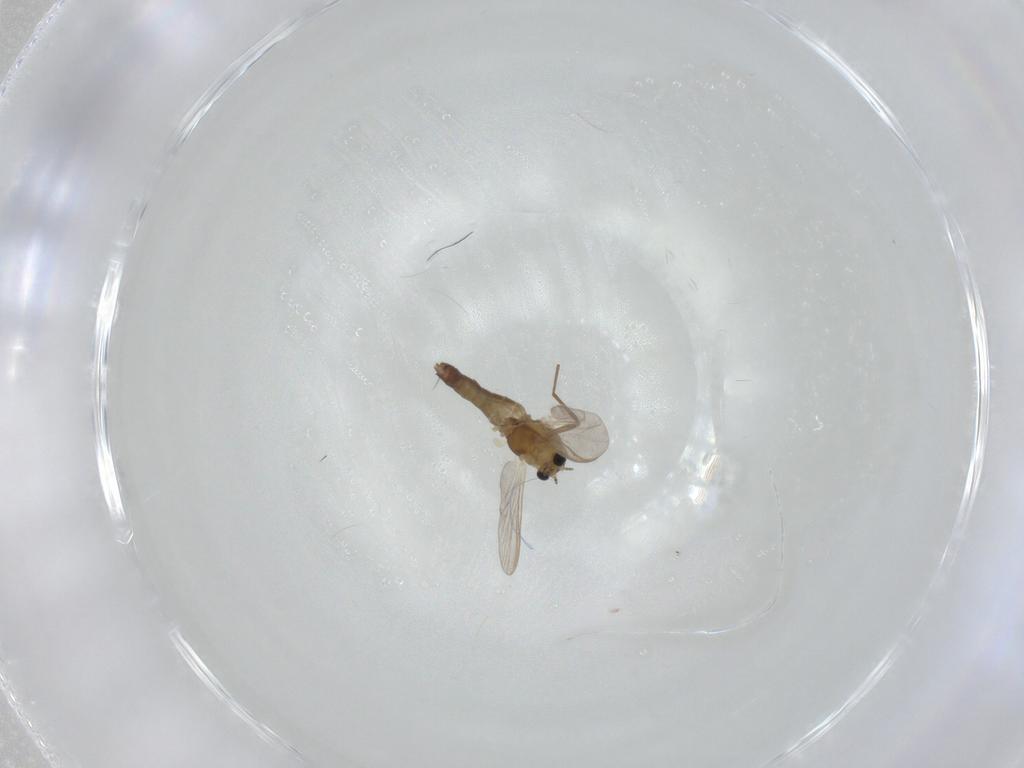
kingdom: Animalia
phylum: Arthropoda
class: Insecta
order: Diptera
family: Chironomidae
